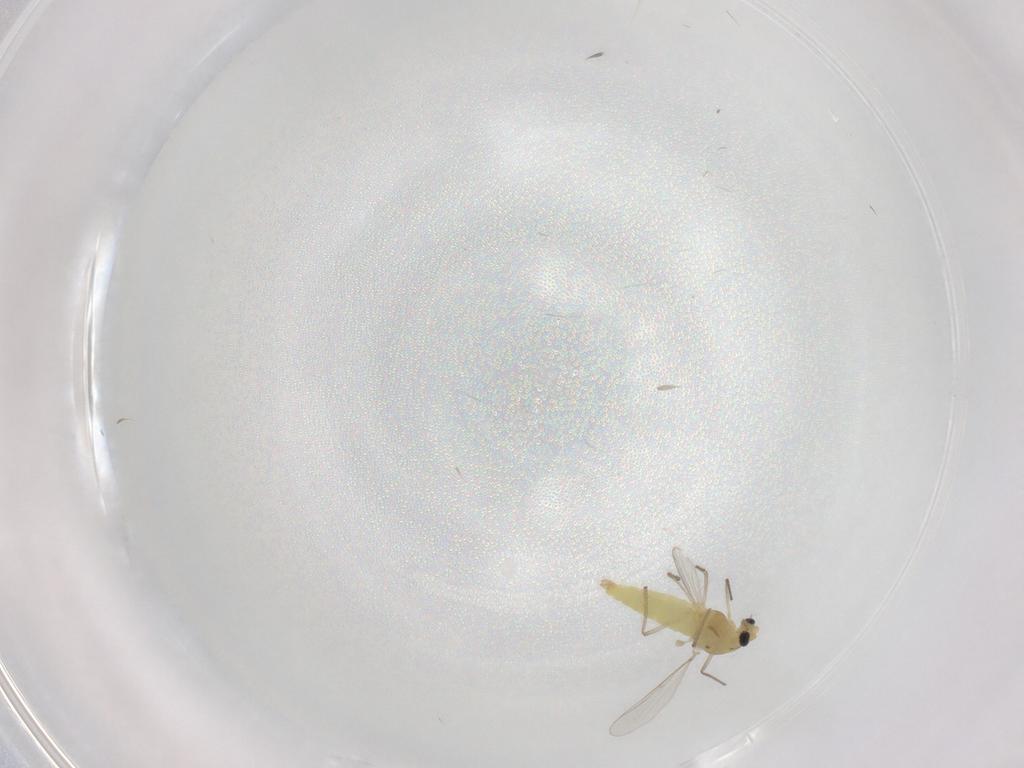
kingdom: Animalia
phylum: Arthropoda
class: Insecta
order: Diptera
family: Chironomidae
